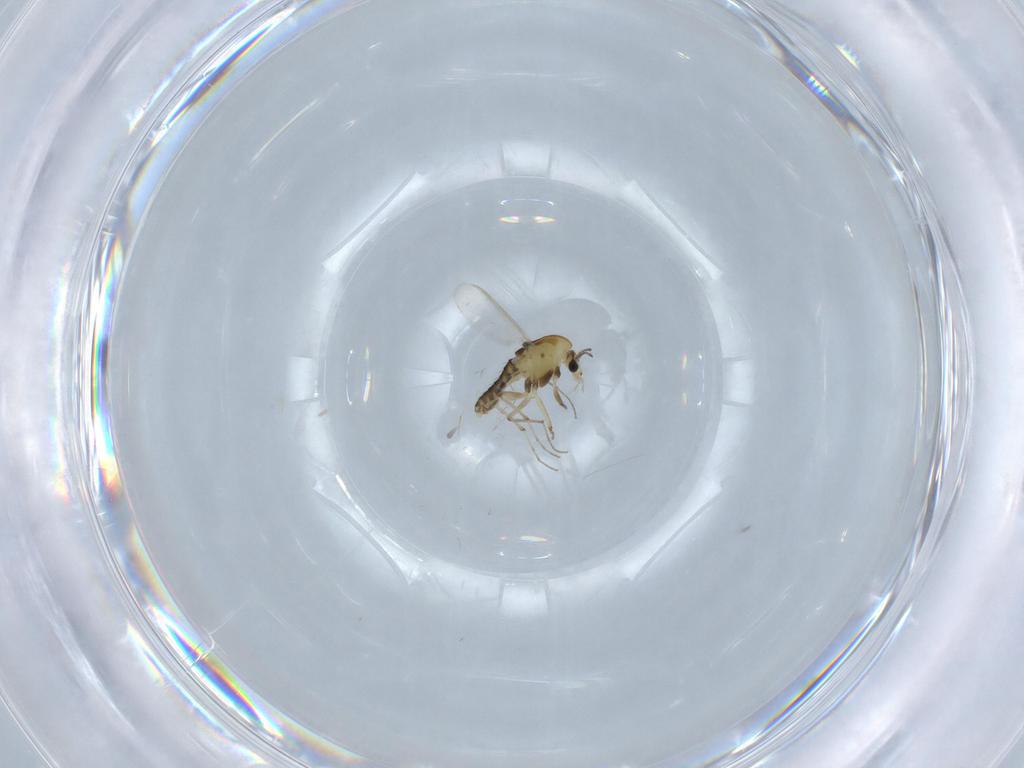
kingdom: Animalia
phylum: Arthropoda
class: Insecta
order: Diptera
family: Chironomidae
